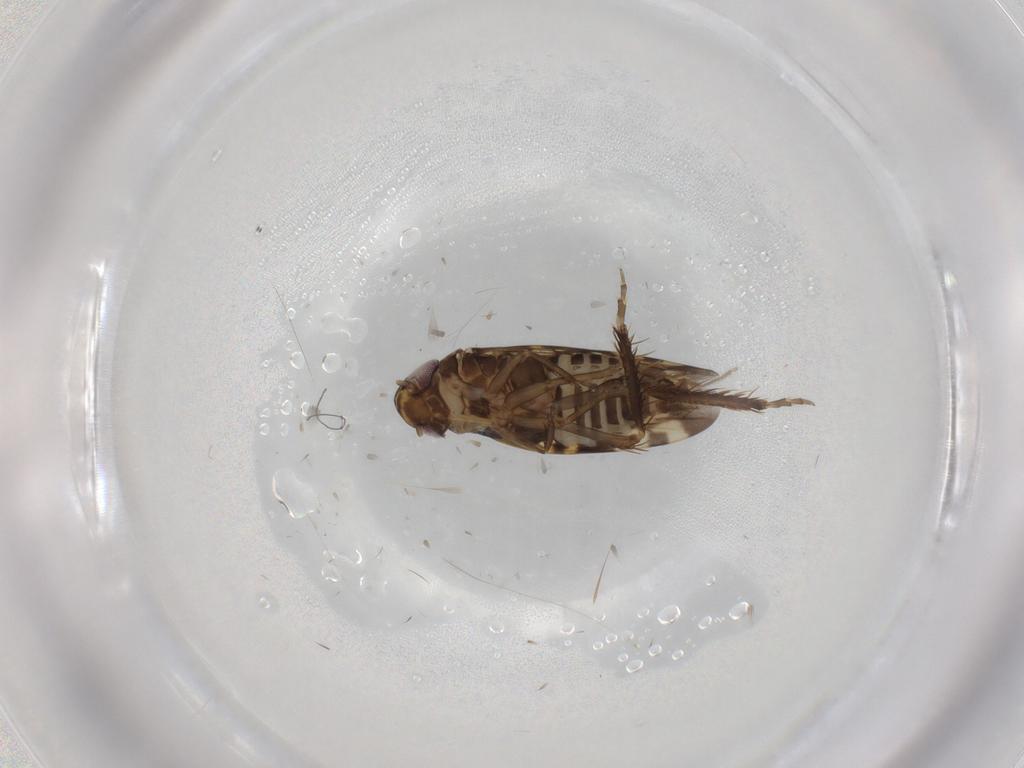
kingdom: Animalia
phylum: Arthropoda
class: Insecta
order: Hemiptera
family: Cicadellidae
